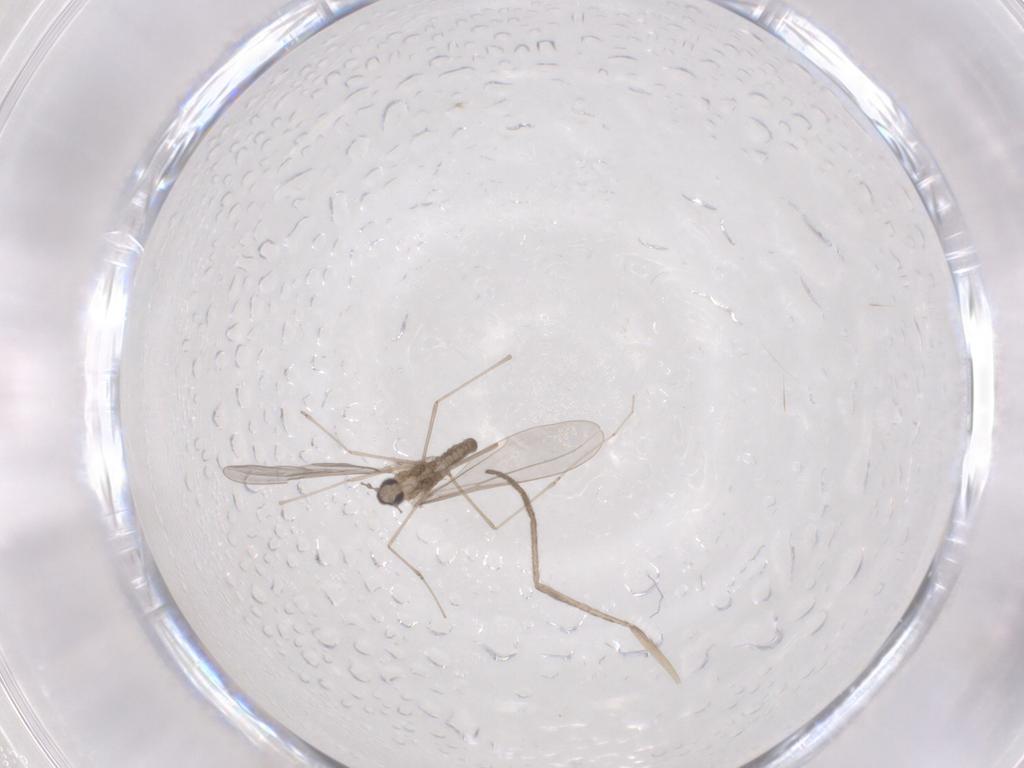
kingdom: Animalia
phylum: Arthropoda
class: Insecta
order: Diptera
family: Cecidomyiidae
